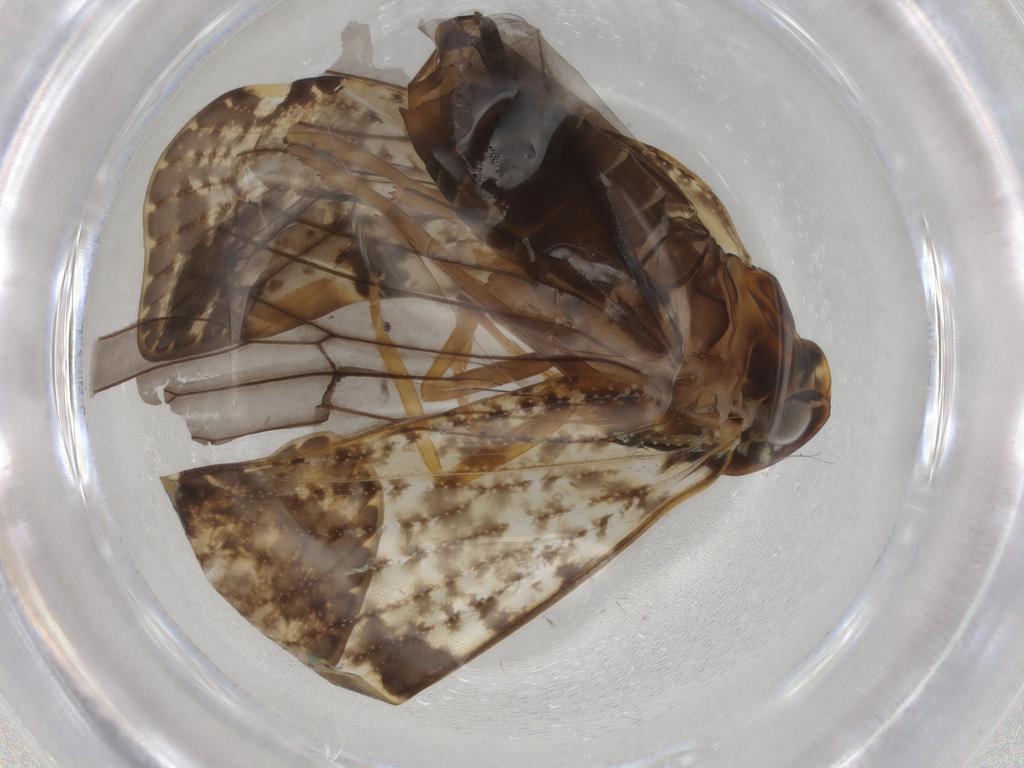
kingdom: Animalia
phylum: Arthropoda
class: Insecta
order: Hemiptera
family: Cixiidae
